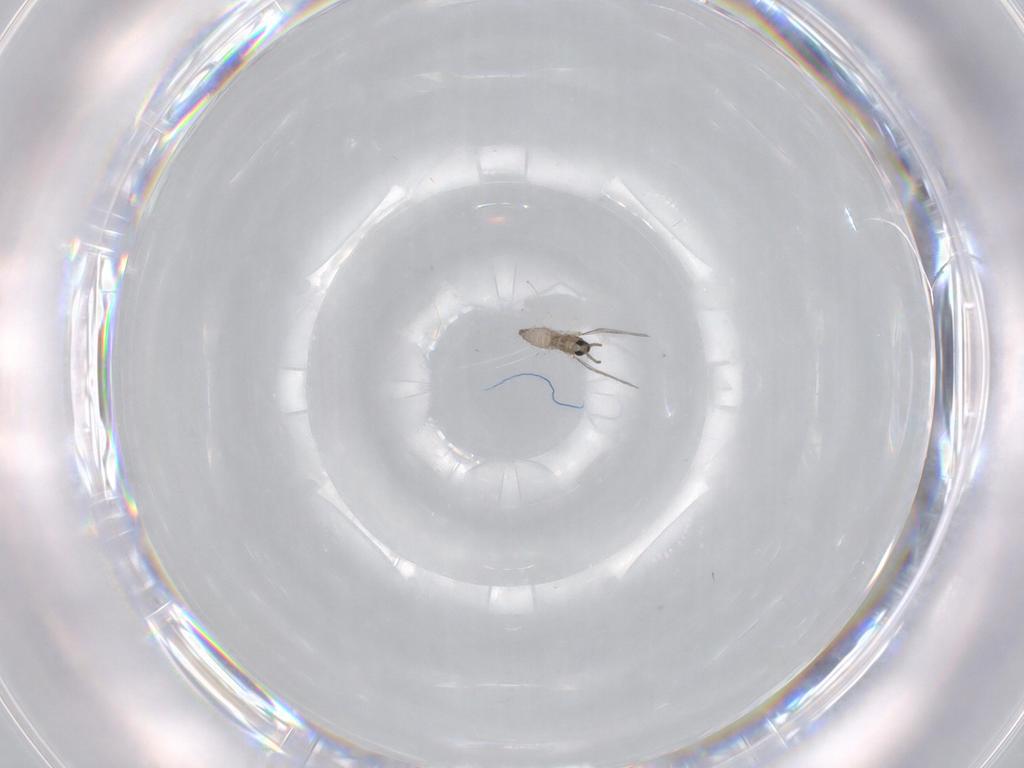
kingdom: Animalia
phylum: Arthropoda
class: Insecta
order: Diptera
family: Cecidomyiidae
